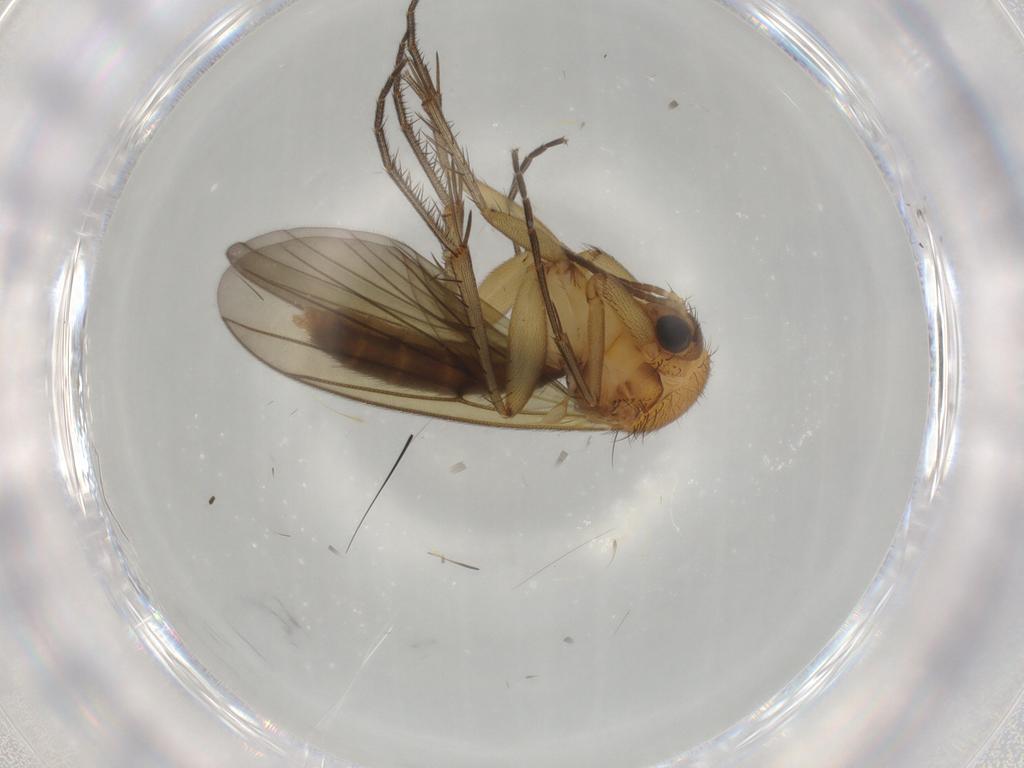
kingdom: Animalia
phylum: Arthropoda
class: Insecta
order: Diptera
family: Mycetophilidae
